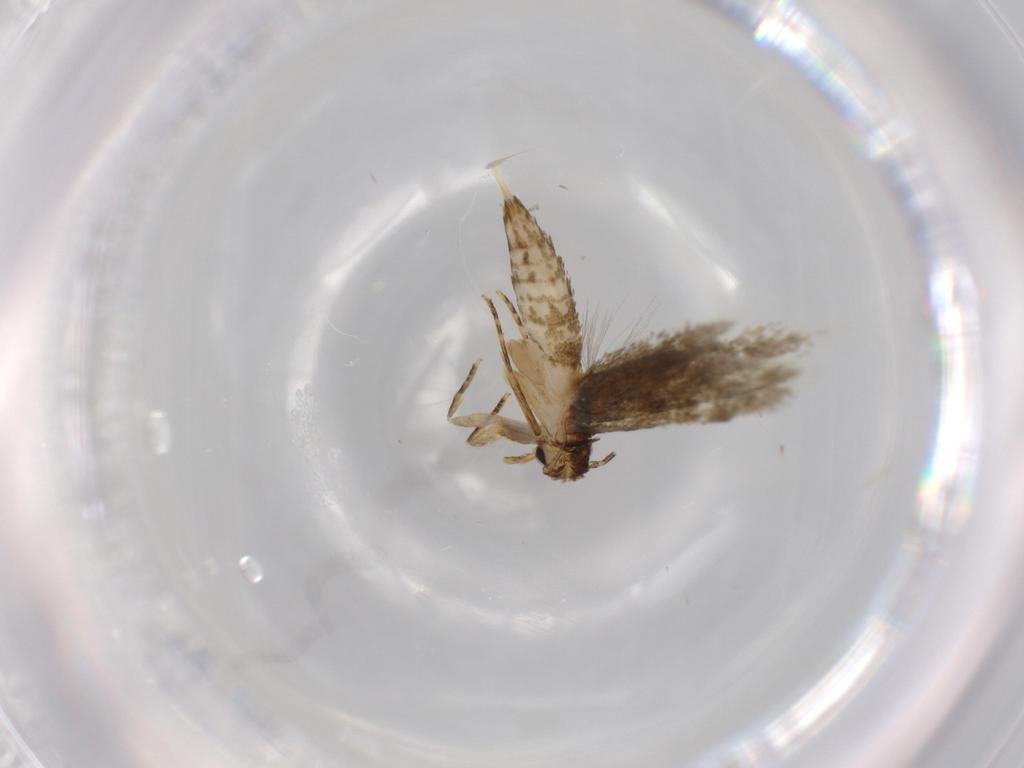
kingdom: Animalia
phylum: Arthropoda
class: Insecta
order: Lepidoptera
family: Tineidae
